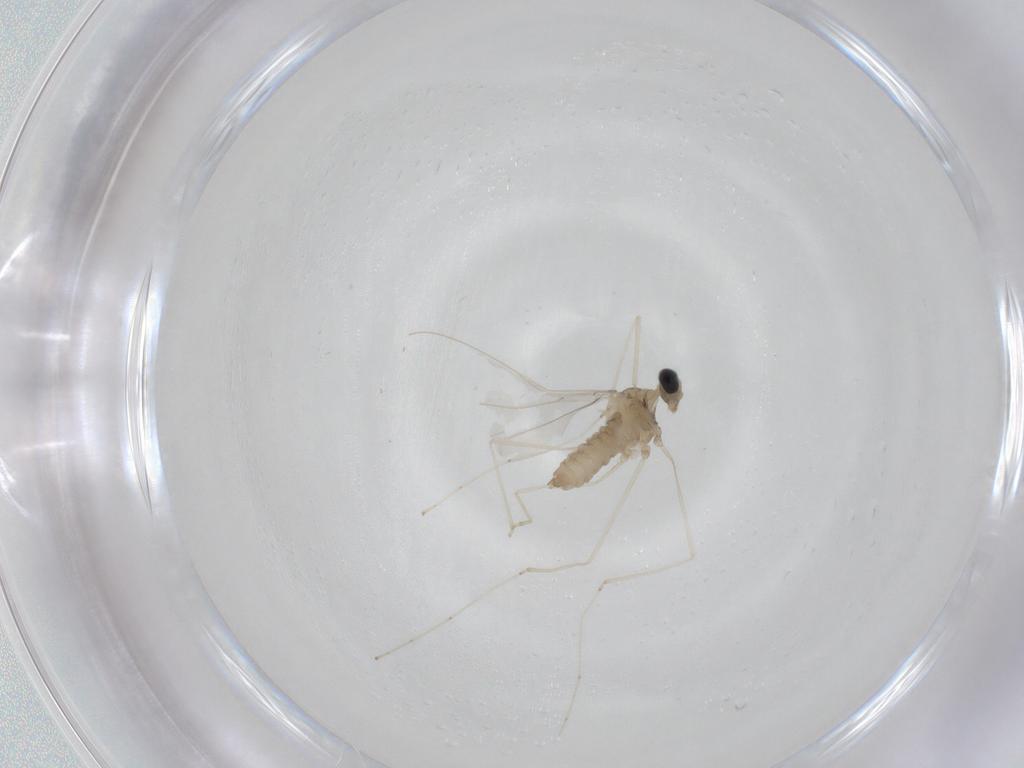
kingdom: Animalia
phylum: Arthropoda
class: Insecta
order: Diptera
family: Cecidomyiidae
